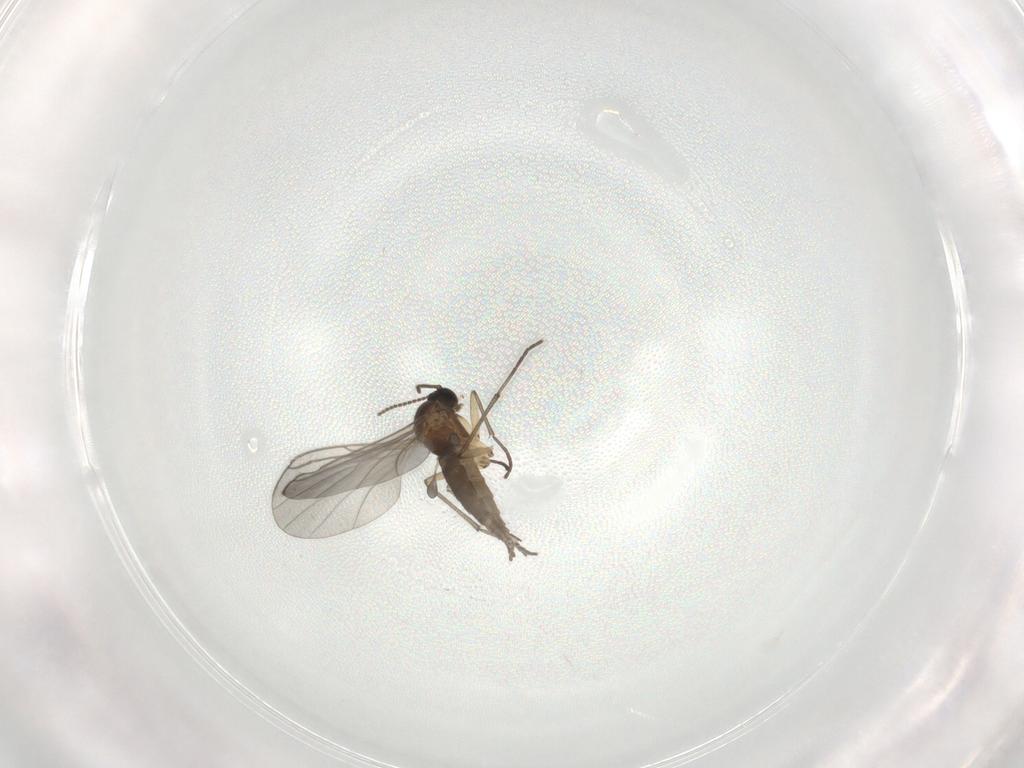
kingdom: Animalia
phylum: Arthropoda
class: Insecta
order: Diptera
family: Sciaridae
